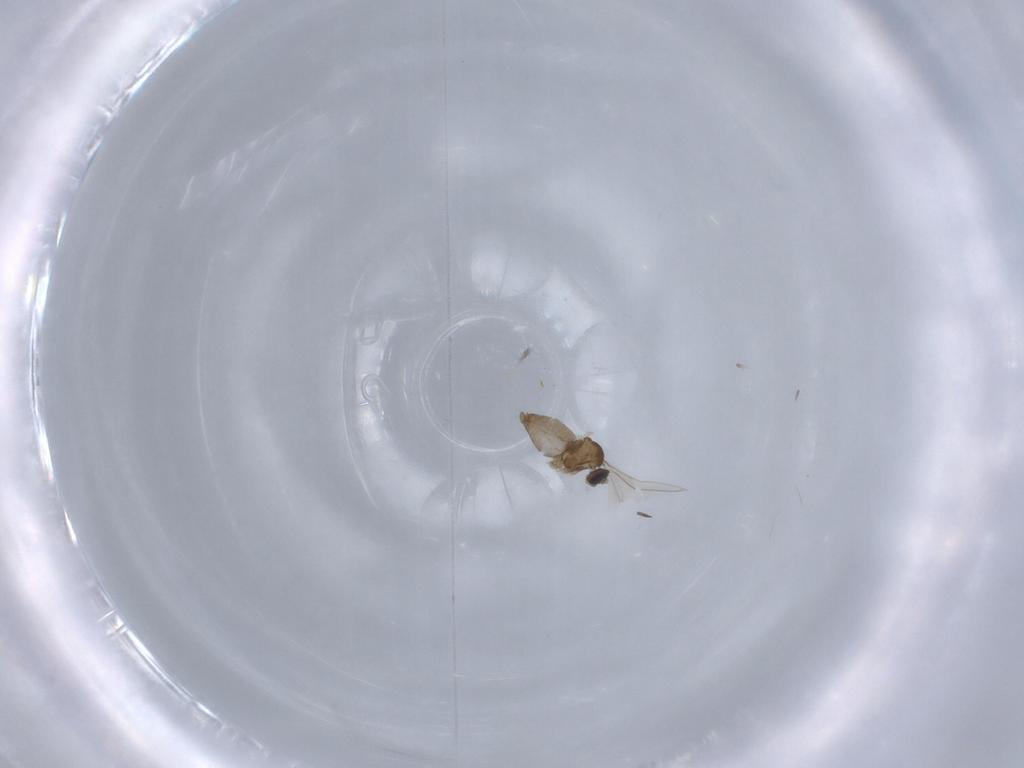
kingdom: Animalia
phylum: Arthropoda
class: Insecta
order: Diptera
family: Cecidomyiidae
